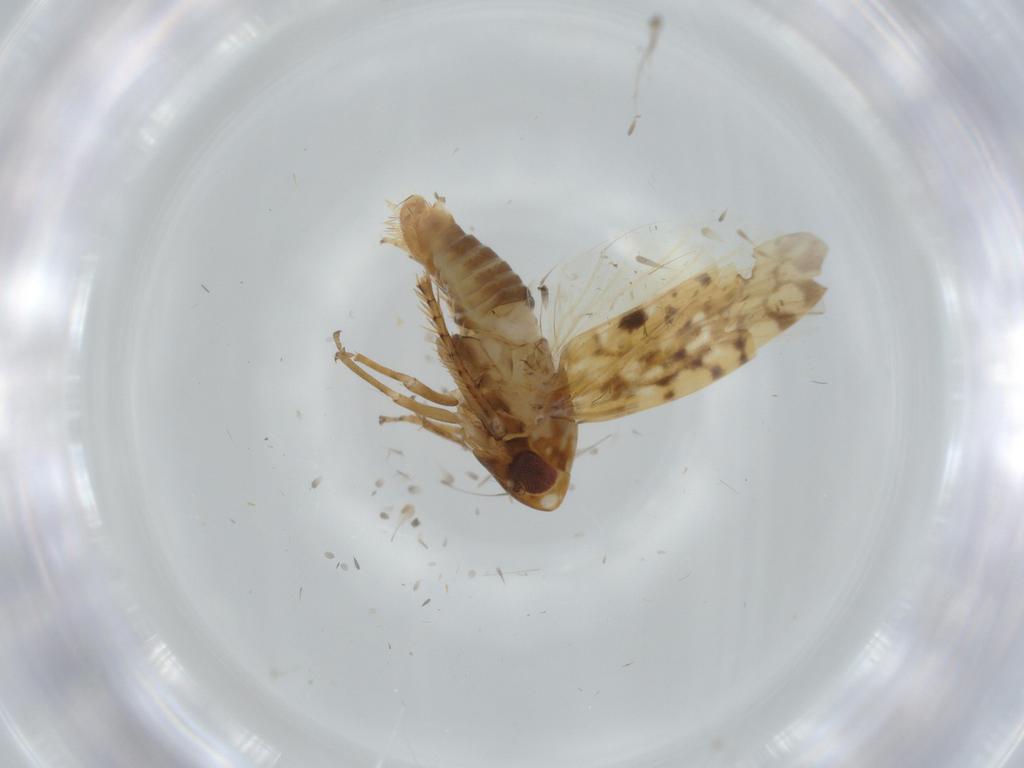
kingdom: Animalia
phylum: Arthropoda
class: Insecta
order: Hemiptera
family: Cicadellidae
